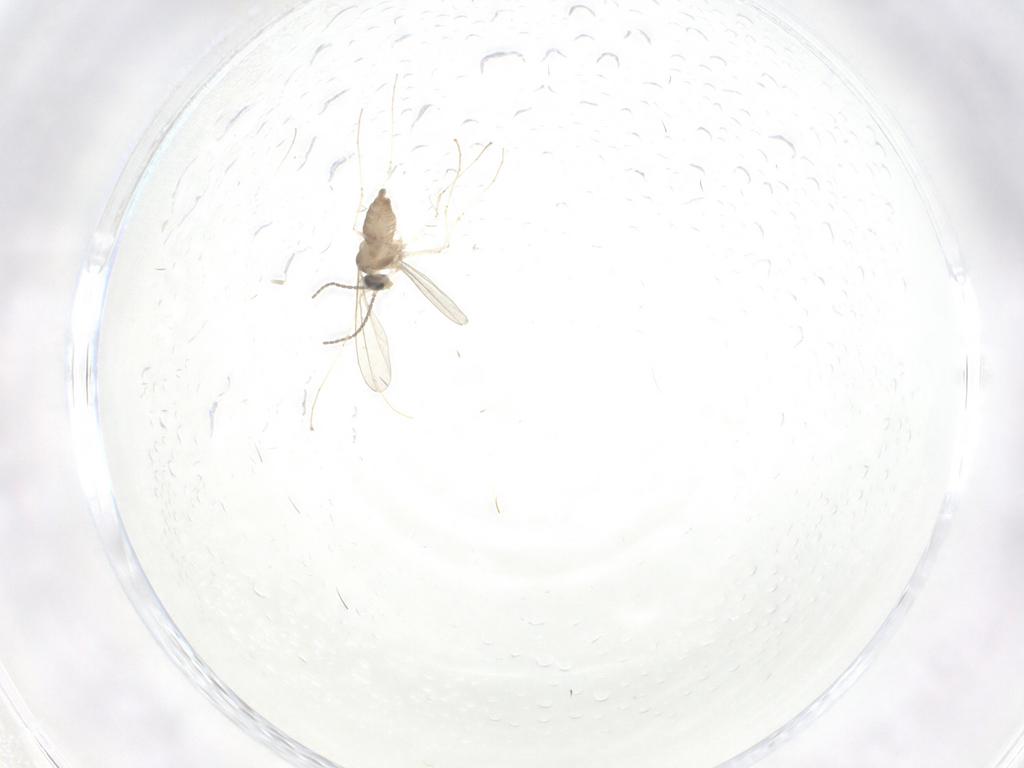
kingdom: Animalia
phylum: Arthropoda
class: Insecta
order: Diptera
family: Cecidomyiidae
